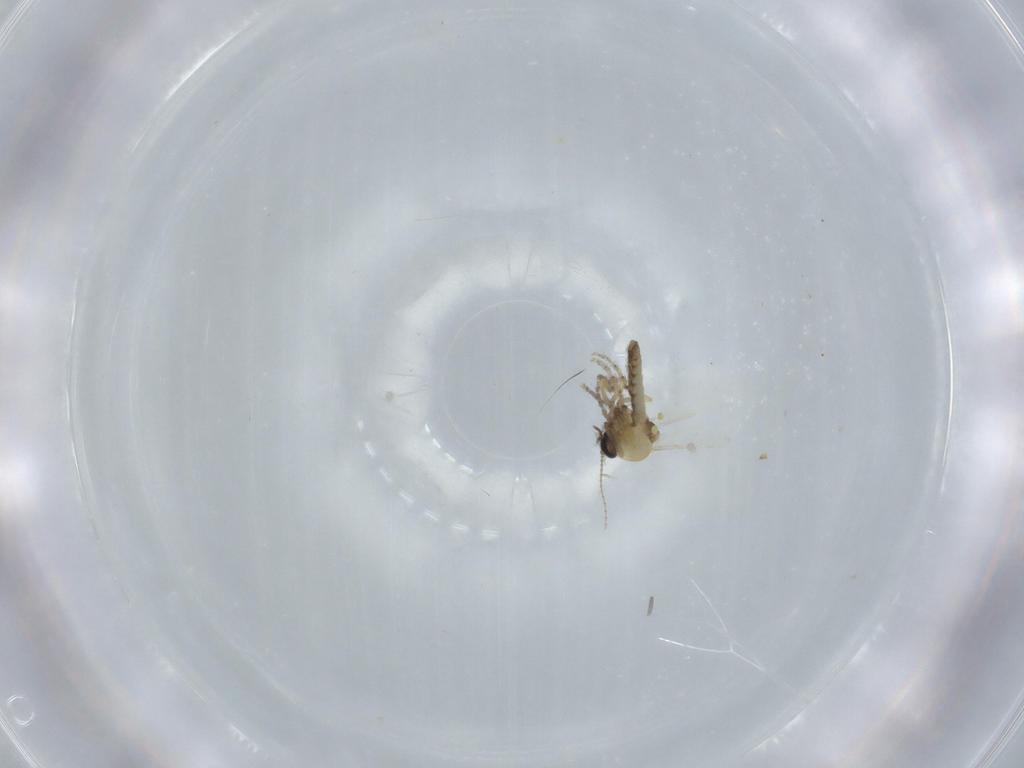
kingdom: Animalia
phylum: Arthropoda
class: Insecta
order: Diptera
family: Ceratopogonidae
